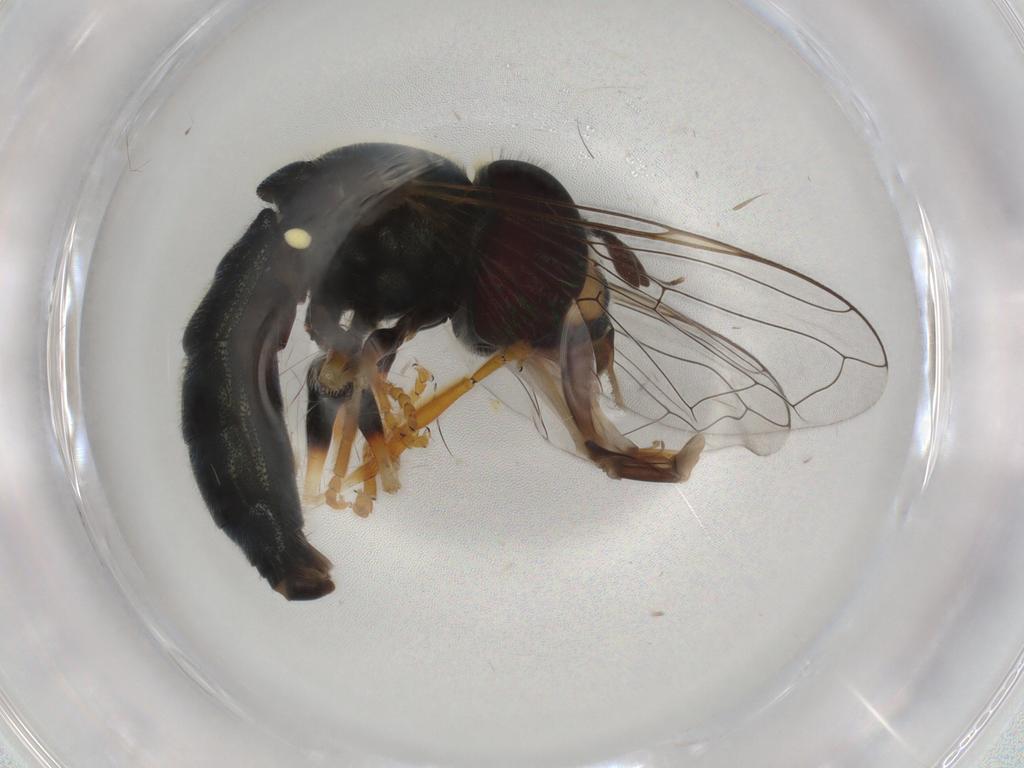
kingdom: Animalia
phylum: Arthropoda
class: Insecta
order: Diptera
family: Syrphidae
